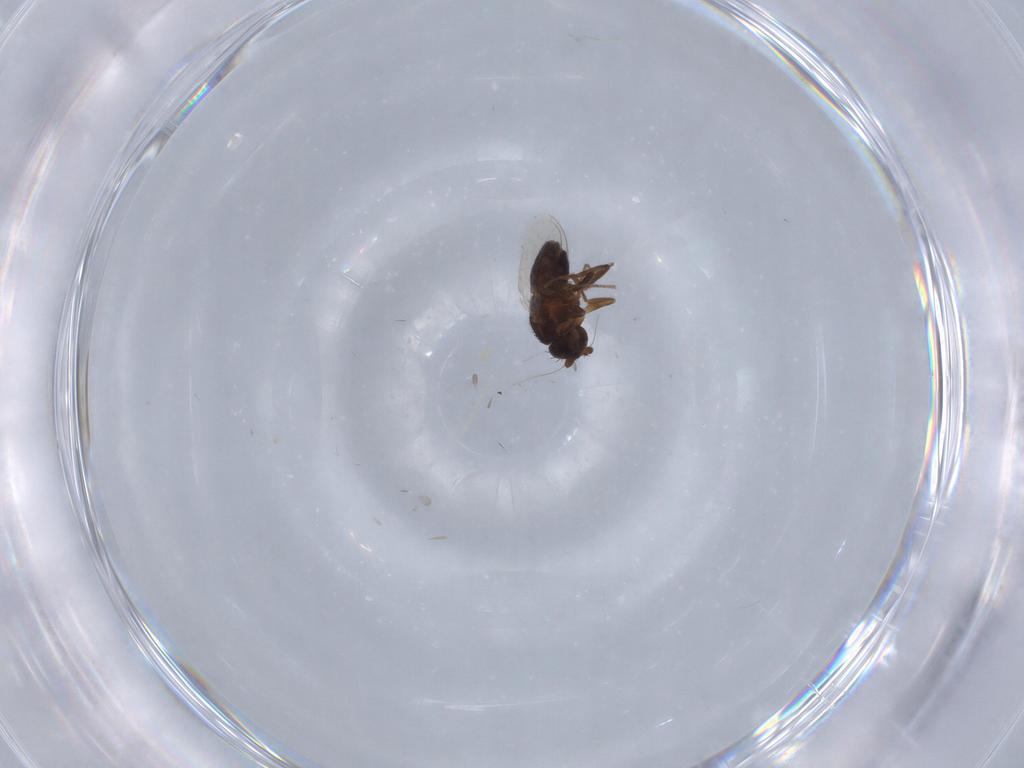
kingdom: Animalia
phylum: Arthropoda
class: Insecta
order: Diptera
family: Sphaeroceridae
